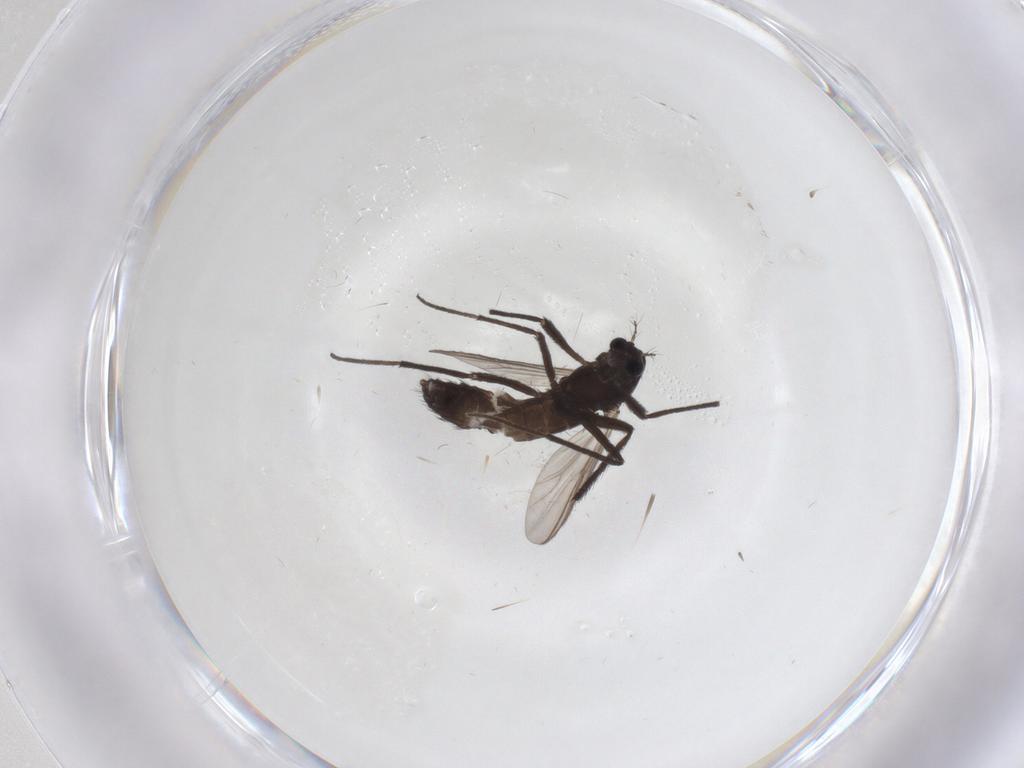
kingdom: Animalia
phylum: Arthropoda
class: Insecta
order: Diptera
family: Chironomidae
